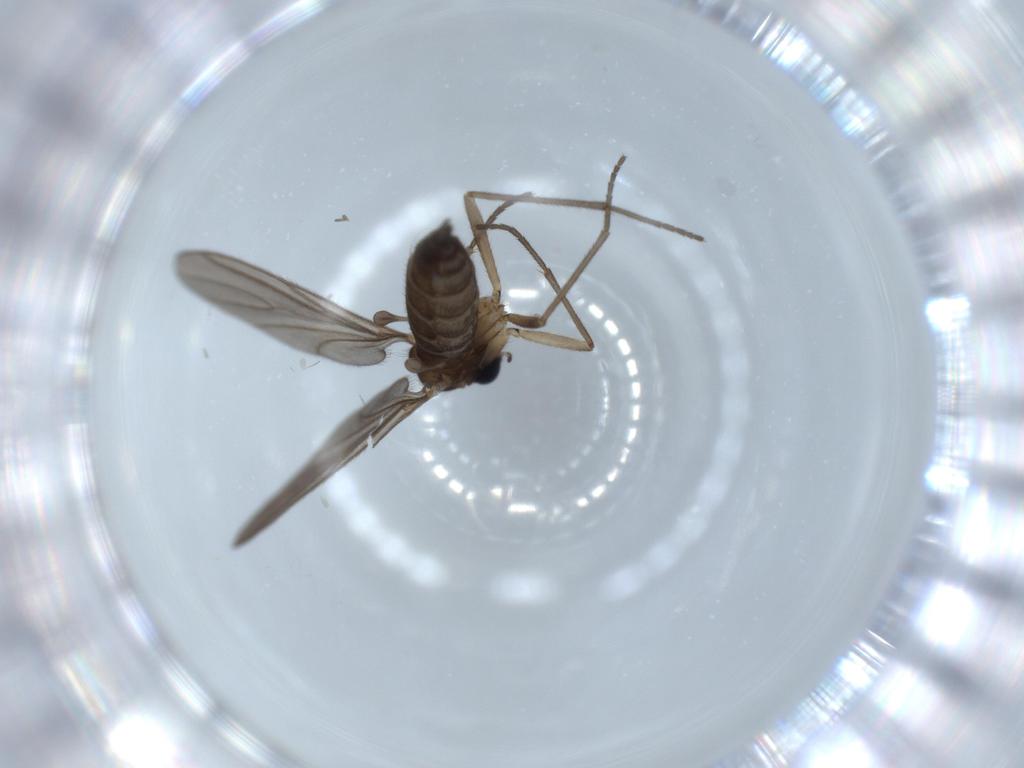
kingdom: Animalia
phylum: Arthropoda
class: Insecta
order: Diptera
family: Sciaridae
